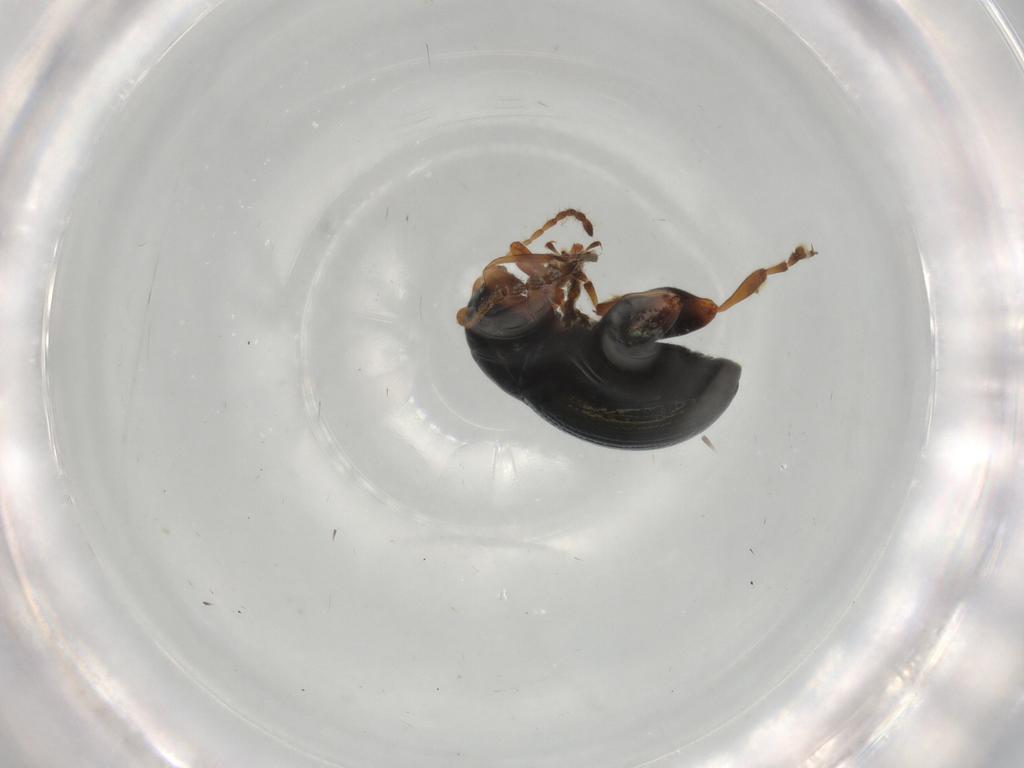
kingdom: Animalia
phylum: Arthropoda
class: Insecta
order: Coleoptera
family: Chrysomelidae
